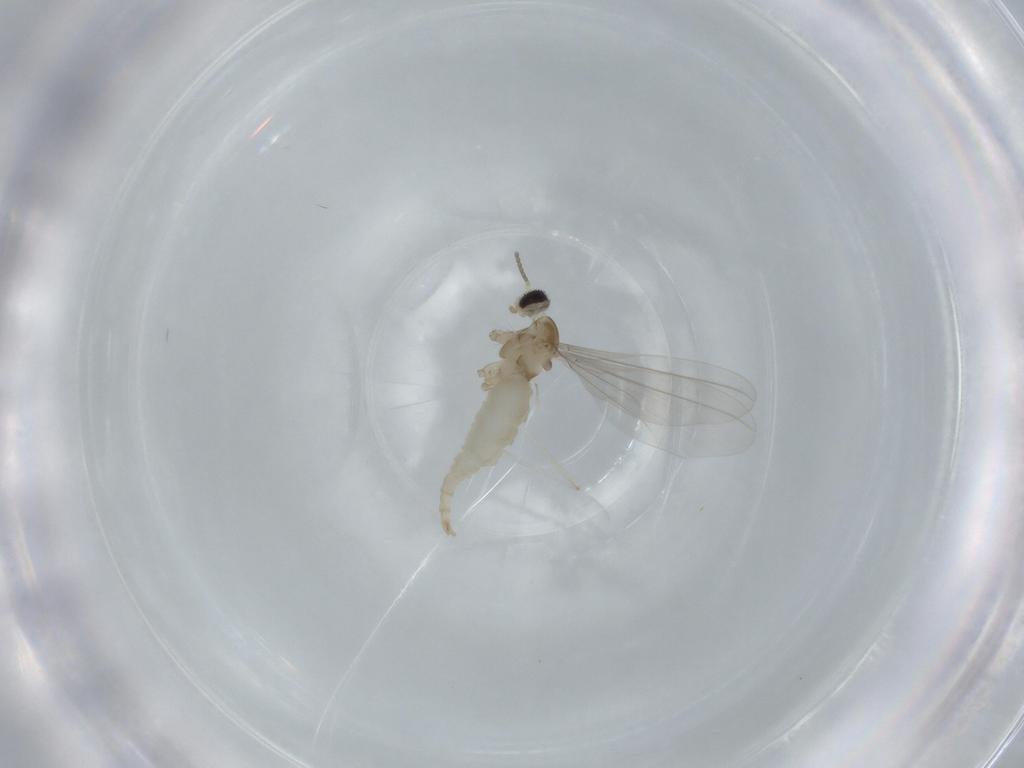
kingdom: Animalia
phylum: Arthropoda
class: Insecta
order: Diptera
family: Cecidomyiidae
